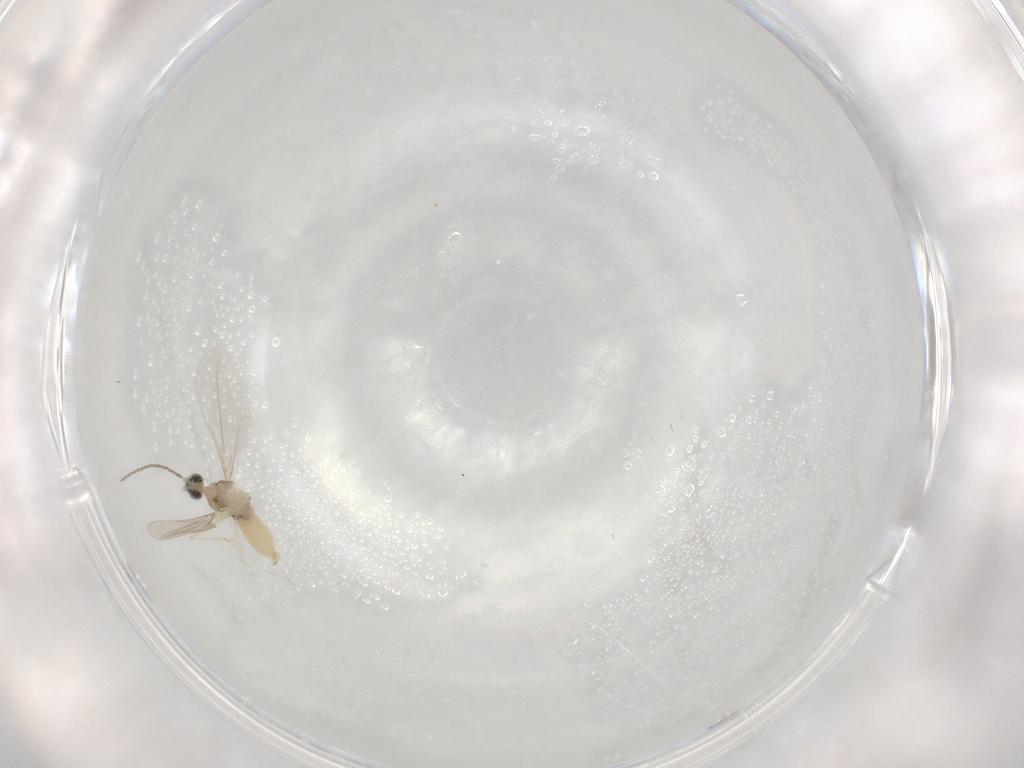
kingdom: Animalia
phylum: Arthropoda
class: Insecta
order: Diptera
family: Cecidomyiidae
